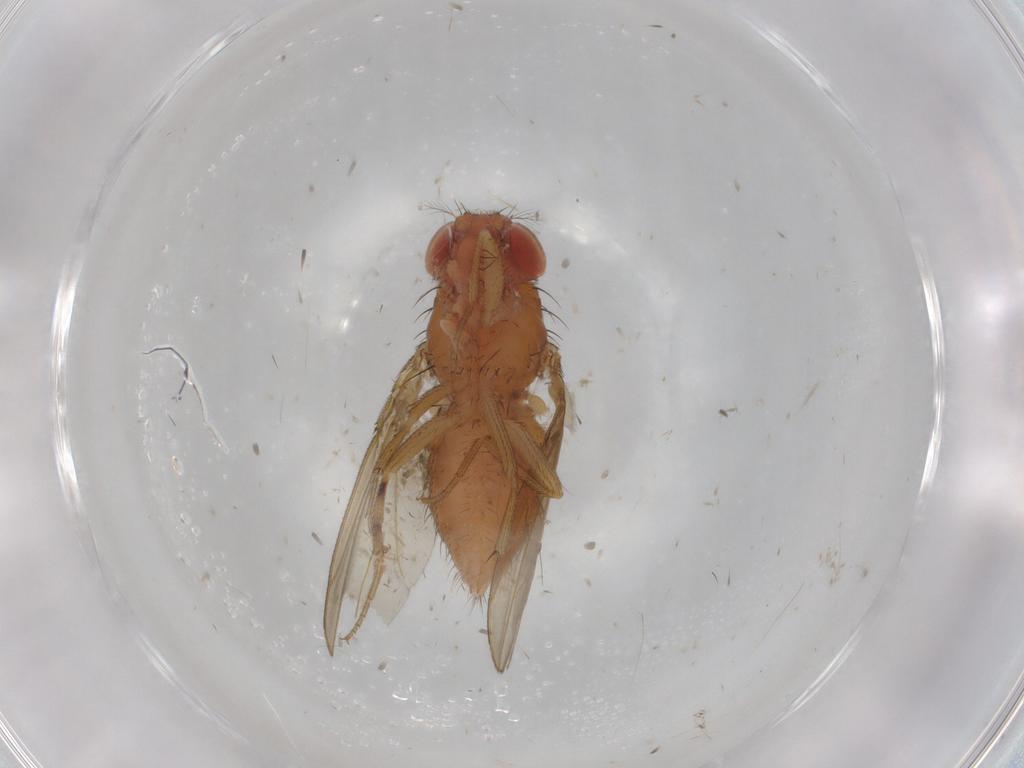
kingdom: Animalia
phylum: Arthropoda
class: Insecta
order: Diptera
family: Drosophilidae
